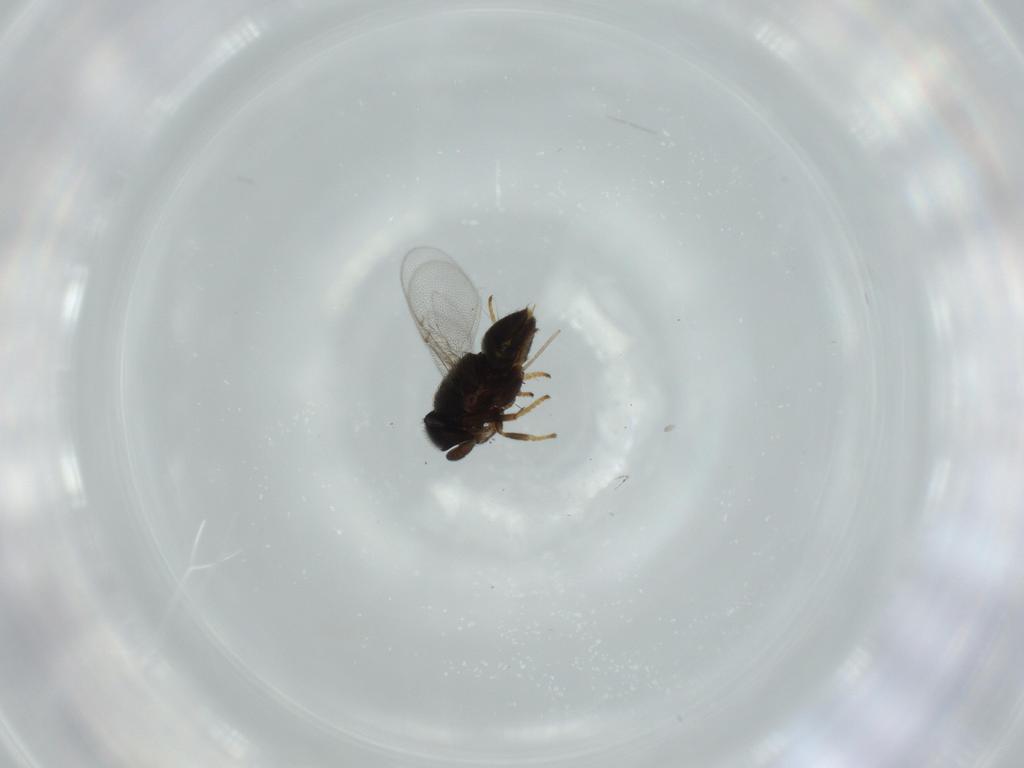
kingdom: Animalia
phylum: Arthropoda
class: Insecta
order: Hymenoptera
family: Encyrtidae
